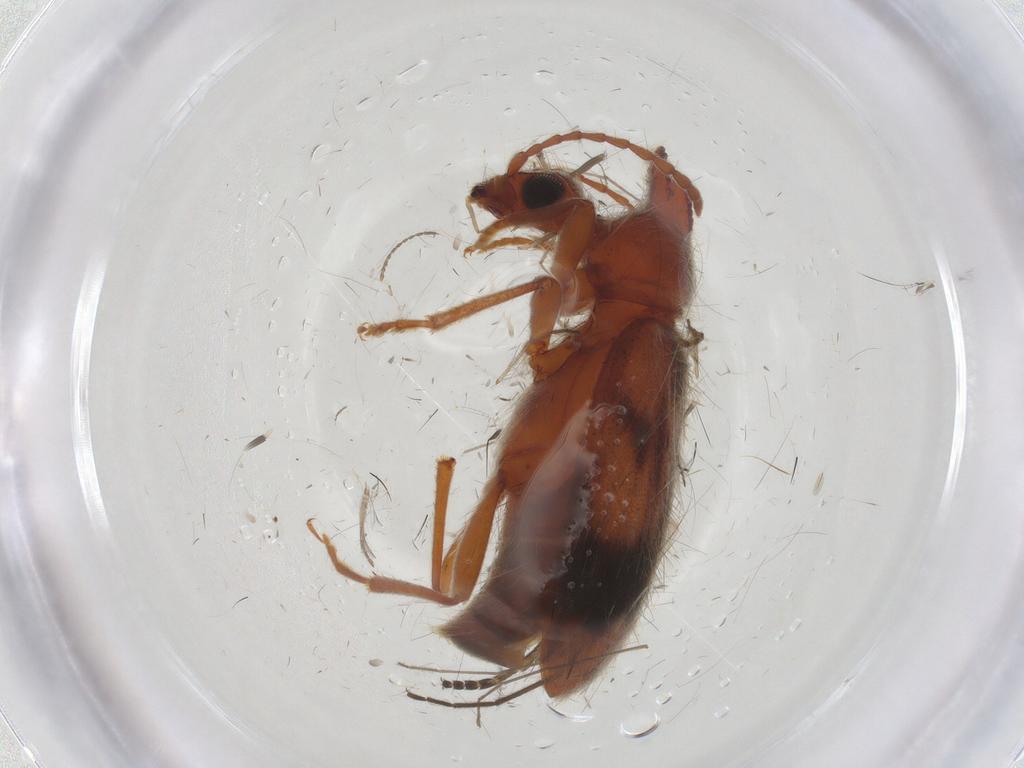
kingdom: Animalia
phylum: Arthropoda
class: Insecta
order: Coleoptera
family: Anthicidae
